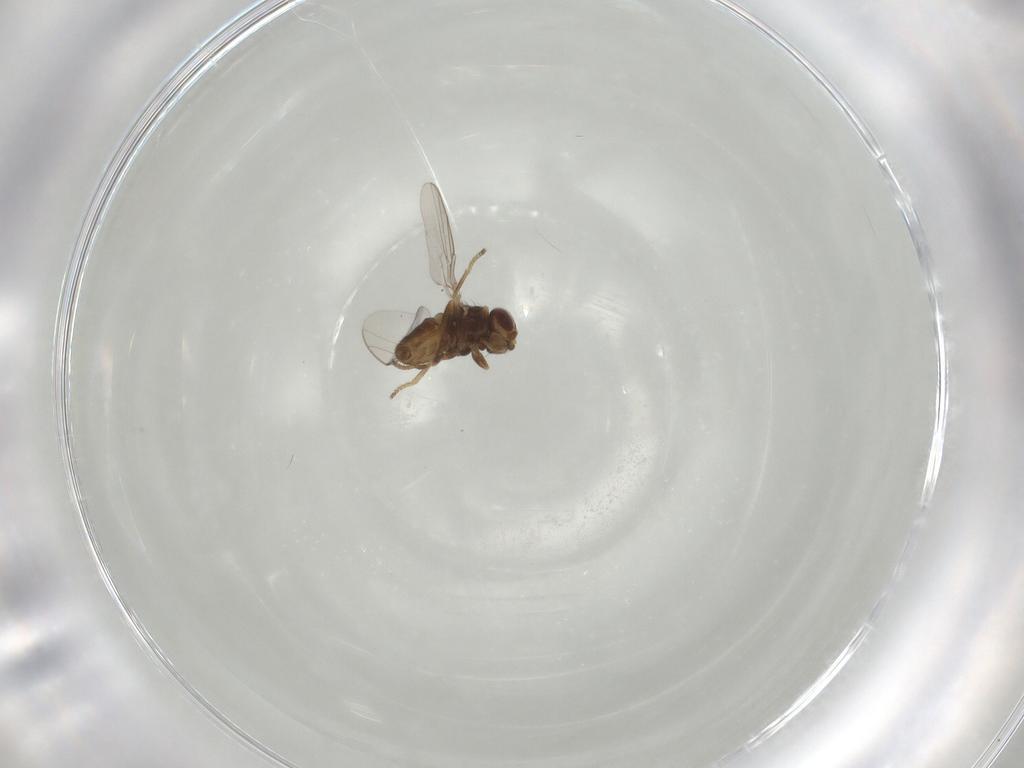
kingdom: Animalia
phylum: Arthropoda
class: Insecta
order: Diptera
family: Chloropidae
